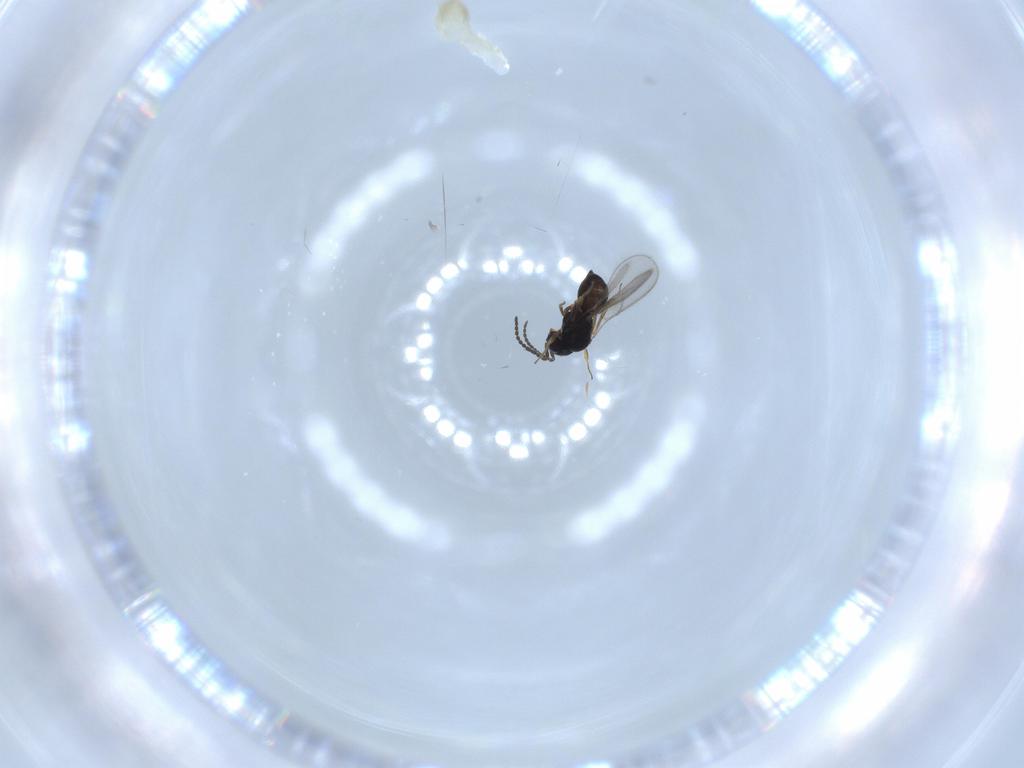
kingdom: Animalia
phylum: Arthropoda
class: Insecta
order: Hymenoptera
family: Scelionidae
